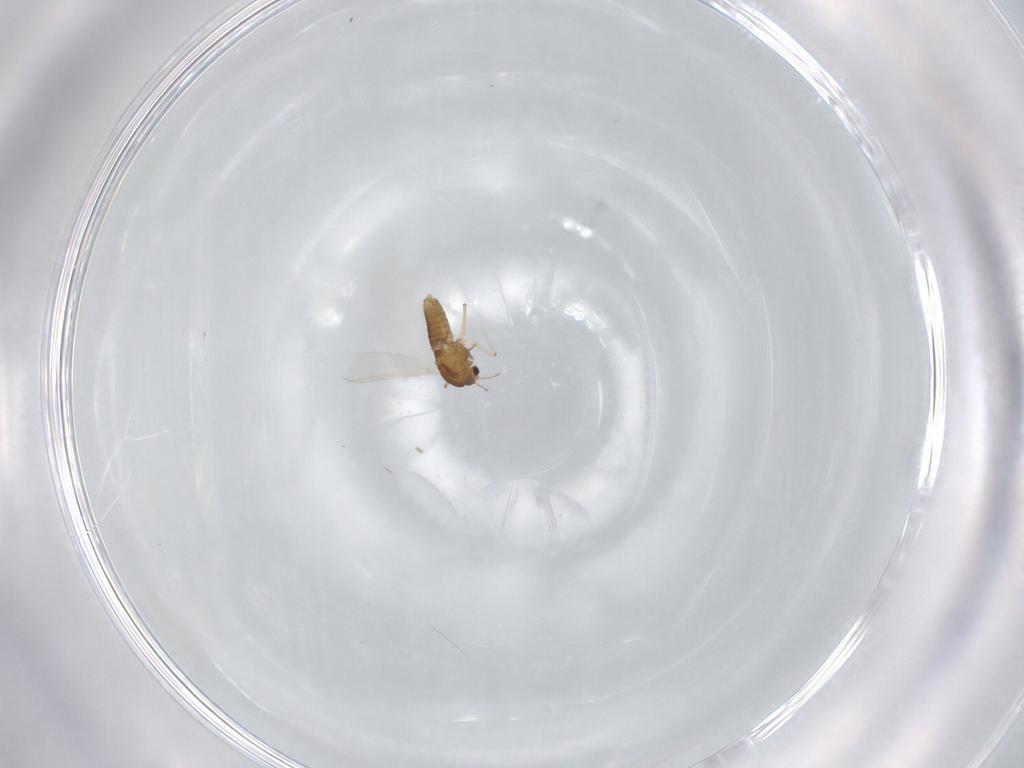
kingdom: Animalia
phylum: Arthropoda
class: Insecta
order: Diptera
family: Chironomidae
